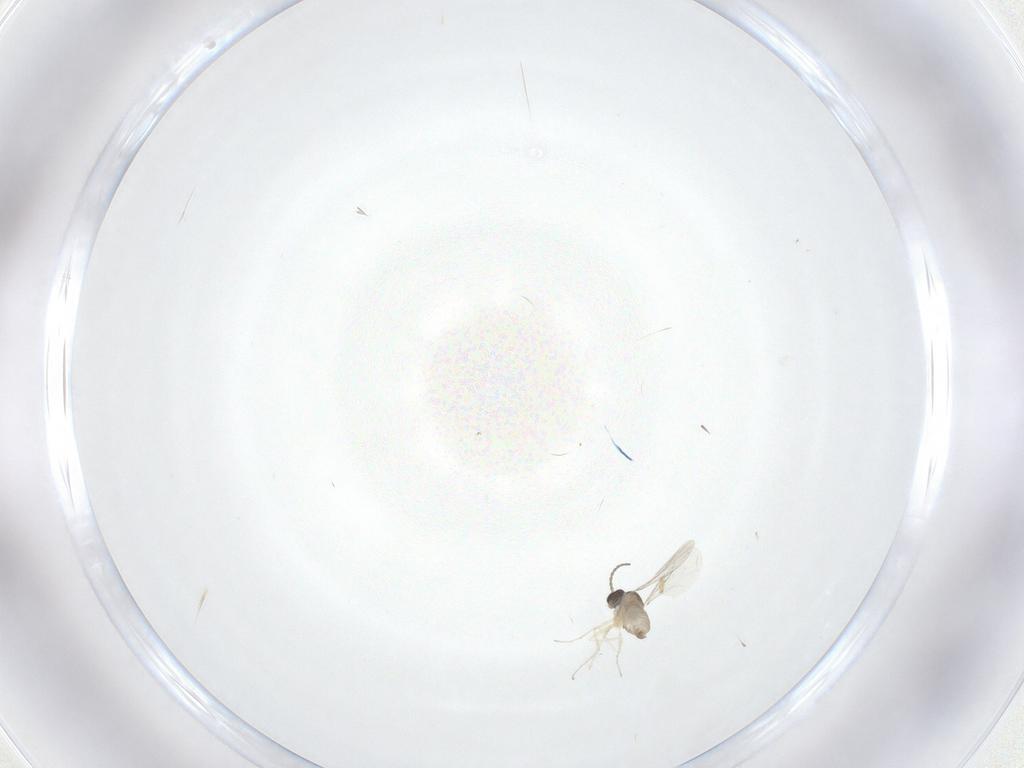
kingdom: Animalia
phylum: Arthropoda
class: Insecta
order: Diptera
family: Cecidomyiidae
